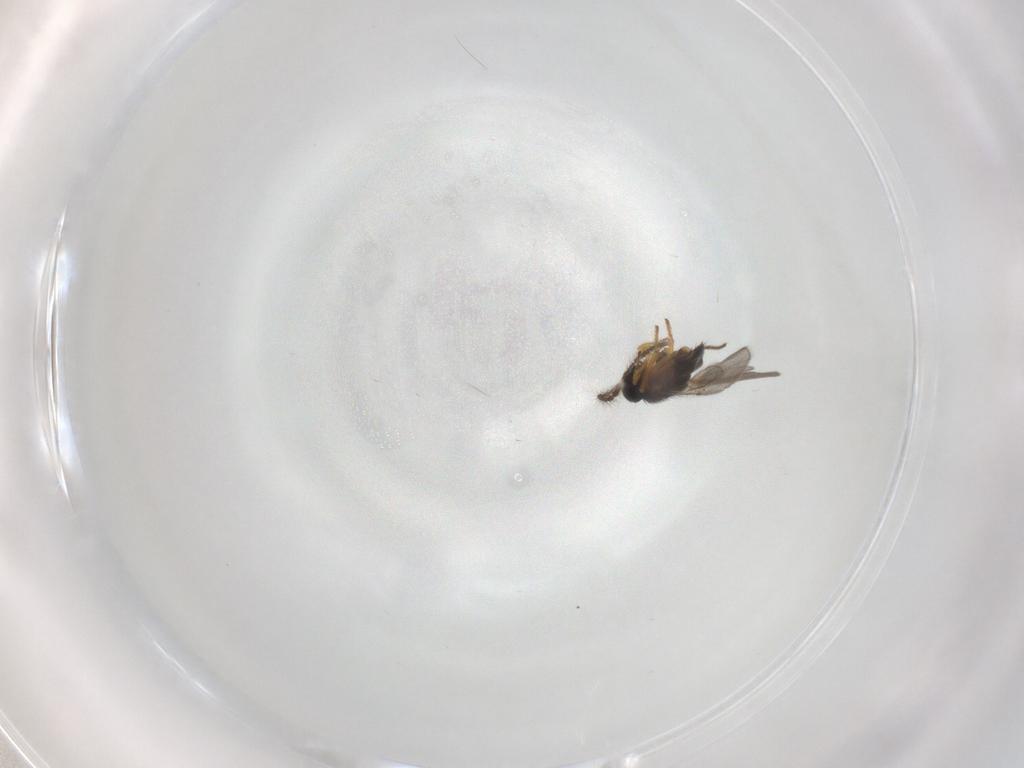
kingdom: Animalia
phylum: Arthropoda
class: Insecta
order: Hymenoptera
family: Encyrtidae
